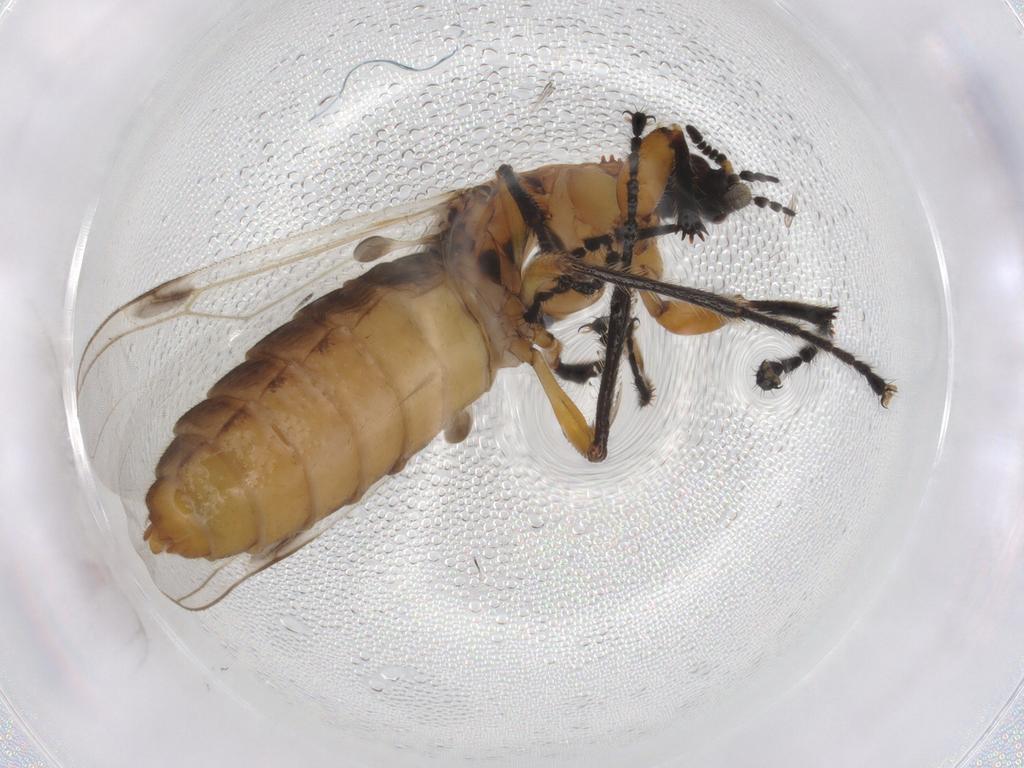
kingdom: Animalia
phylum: Arthropoda
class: Insecta
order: Diptera
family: Bibionidae
